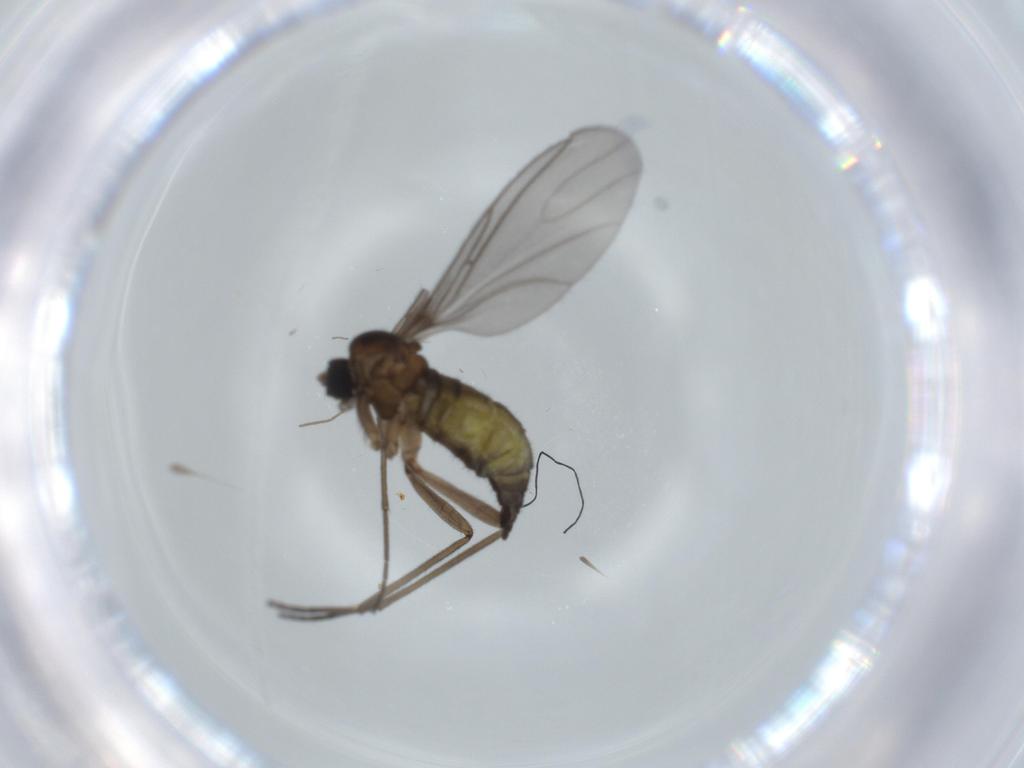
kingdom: Animalia
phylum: Arthropoda
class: Insecta
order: Diptera
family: Sciaridae
